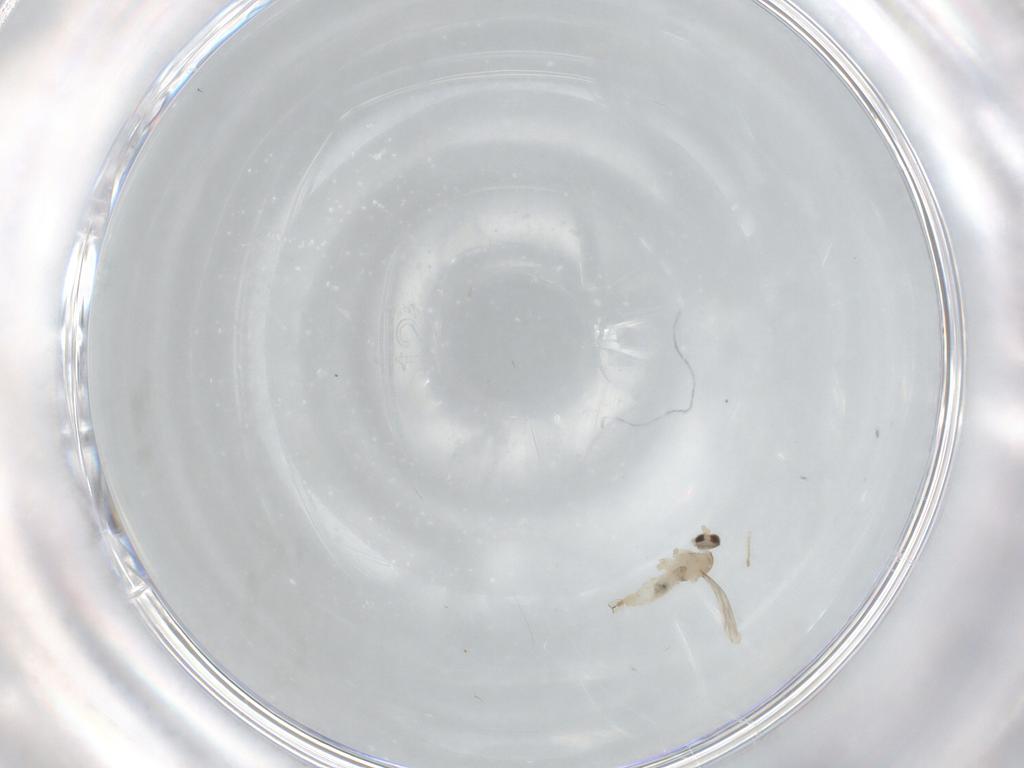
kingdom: Animalia
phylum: Arthropoda
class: Insecta
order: Diptera
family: Cecidomyiidae
